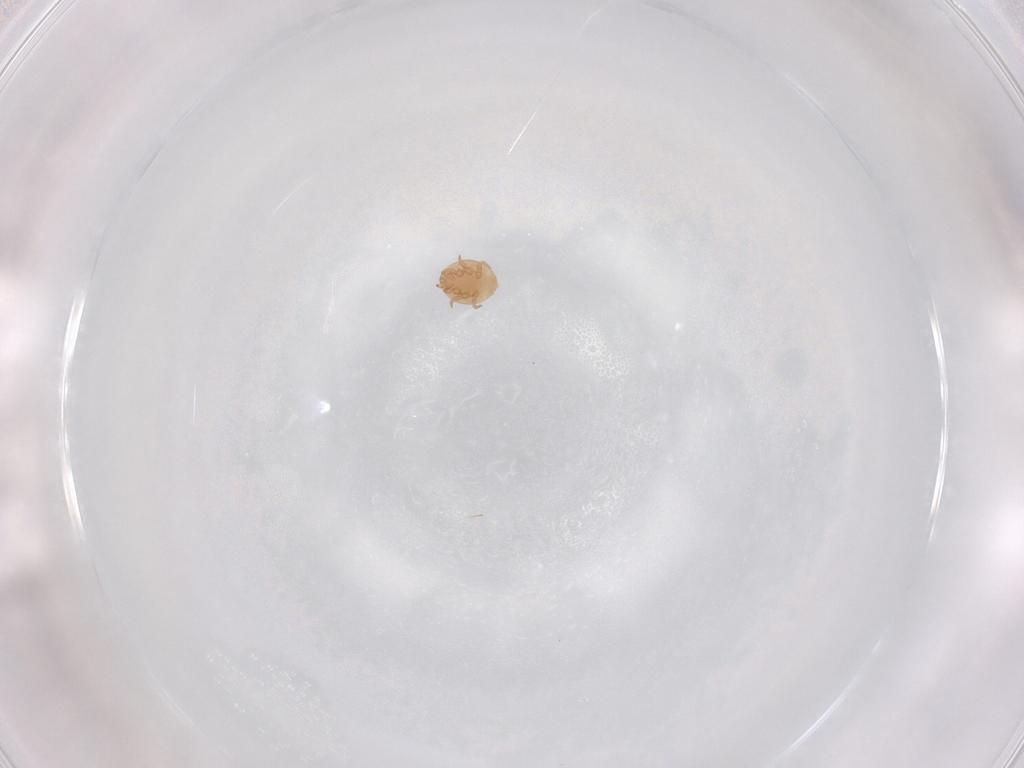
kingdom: Animalia
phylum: Arthropoda
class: Arachnida
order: Mesostigmata
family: Trematuridae
